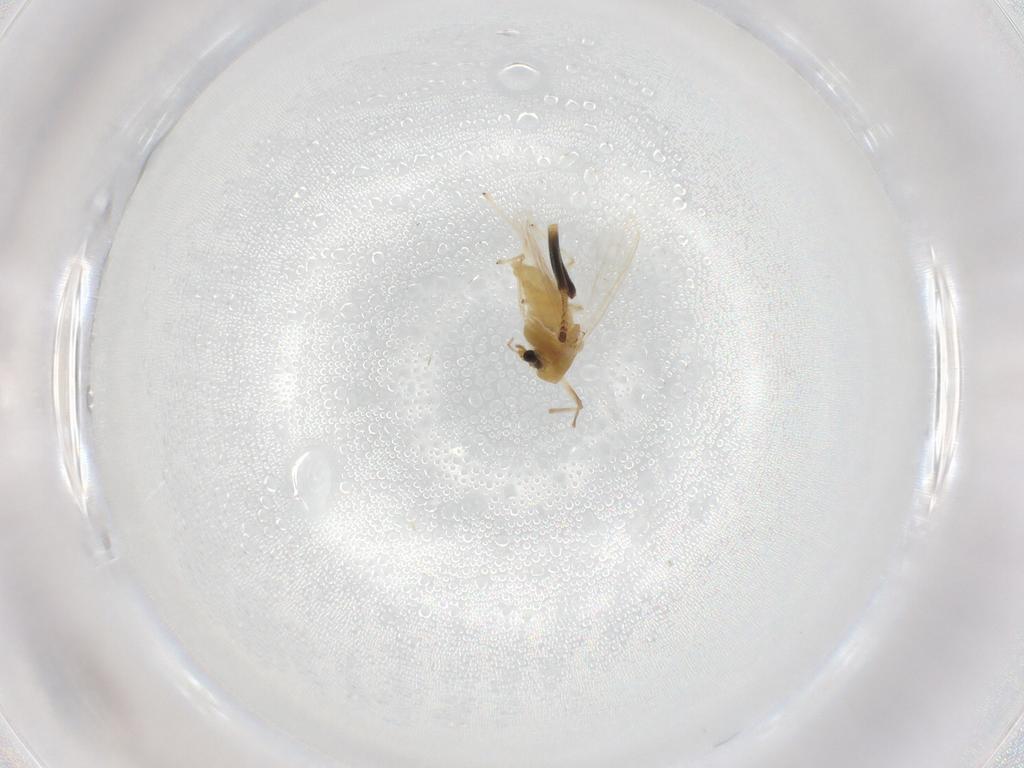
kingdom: Animalia
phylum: Arthropoda
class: Insecta
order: Diptera
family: Chironomidae
